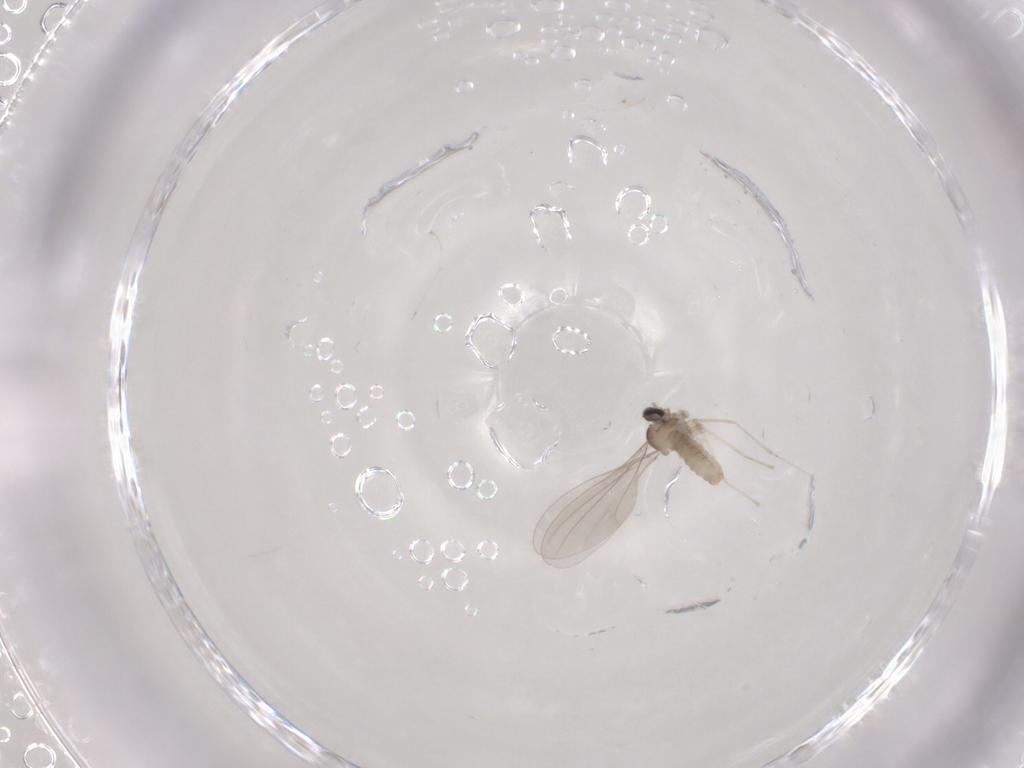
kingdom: Animalia
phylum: Arthropoda
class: Insecta
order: Diptera
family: Cecidomyiidae
